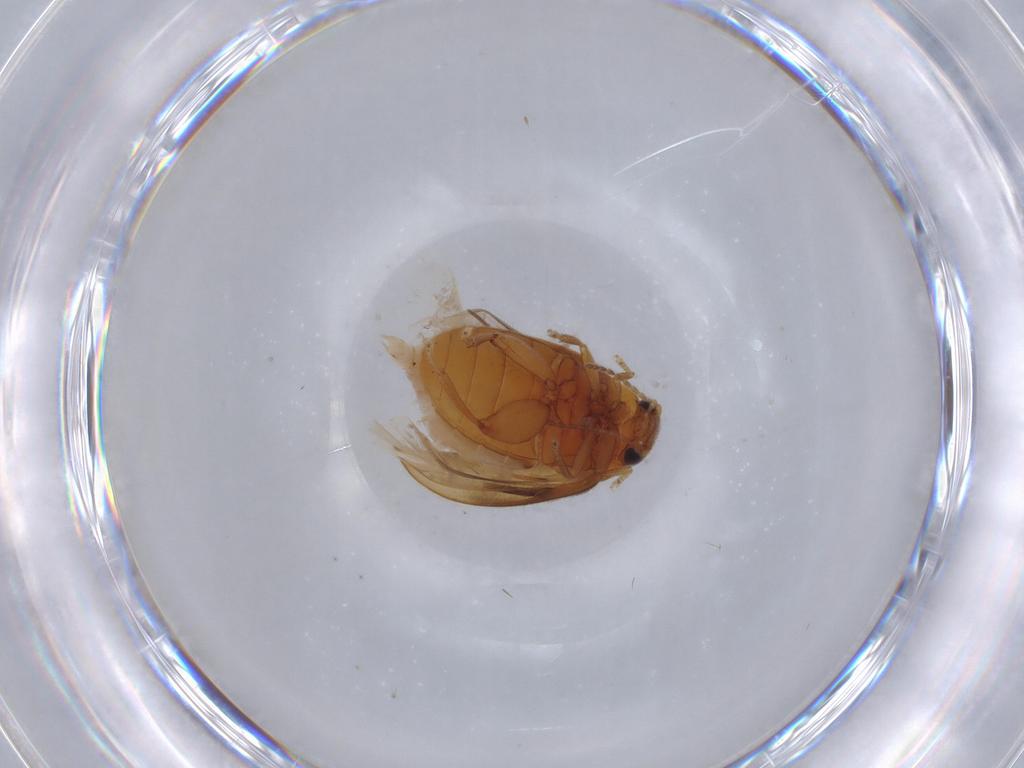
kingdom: Animalia
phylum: Arthropoda
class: Insecta
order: Coleoptera
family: Scirtidae
